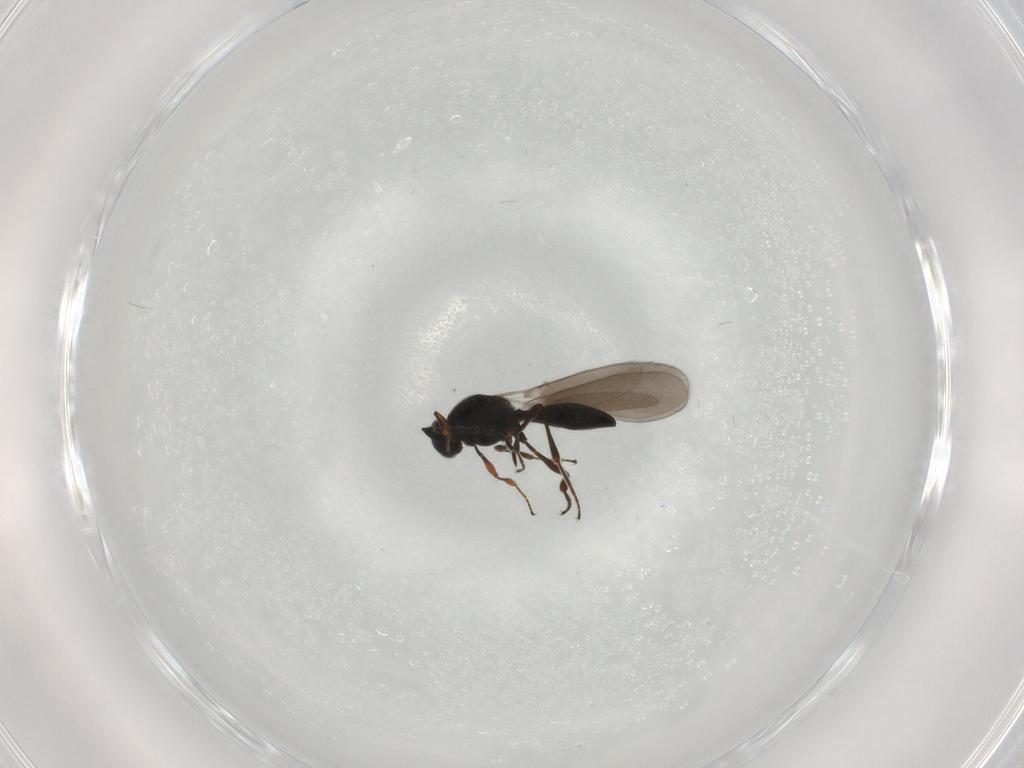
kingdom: Animalia
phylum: Arthropoda
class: Insecta
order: Hymenoptera
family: Platygastridae
